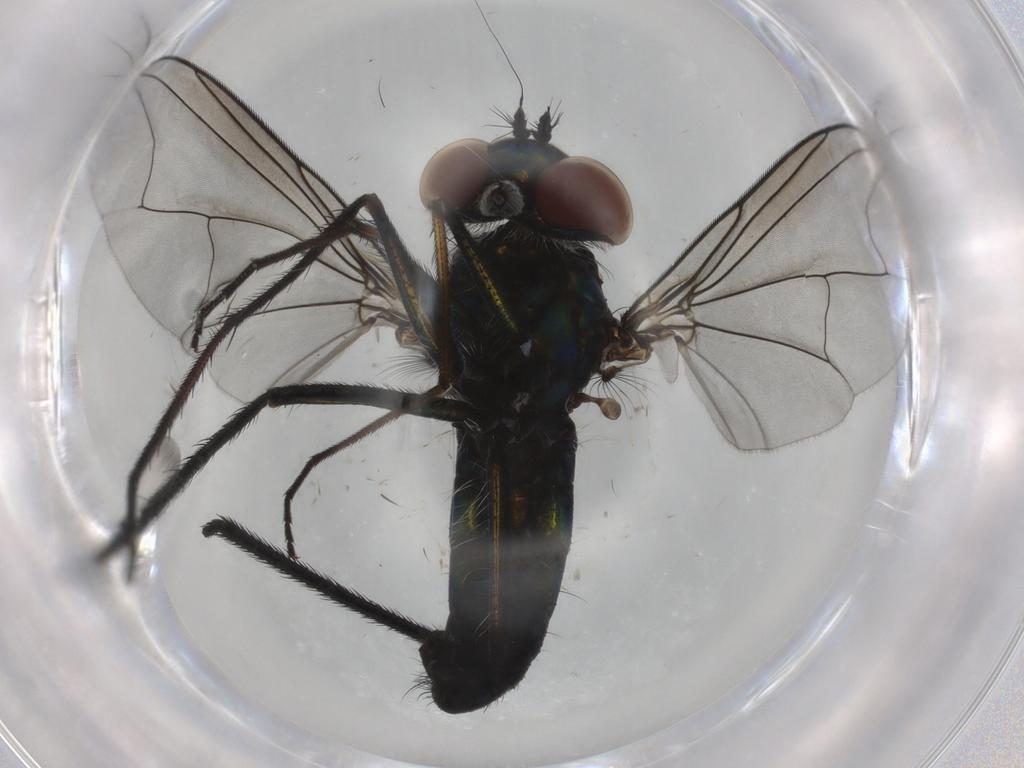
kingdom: Animalia
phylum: Arthropoda
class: Insecta
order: Diptera
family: Dolichopodidae
